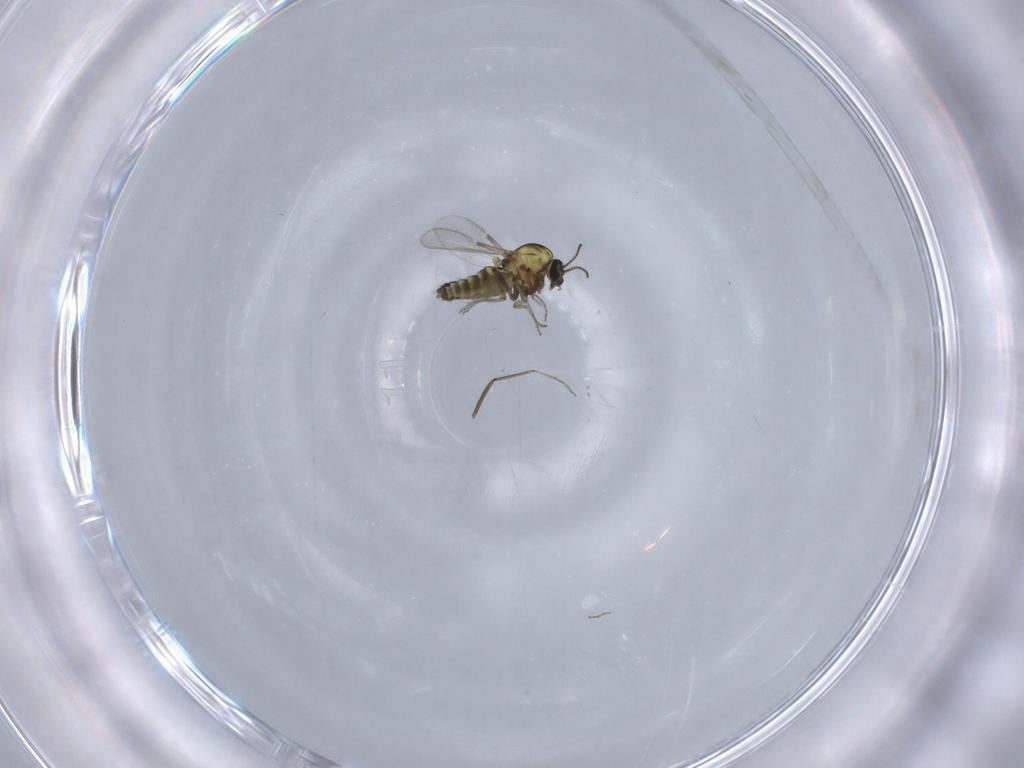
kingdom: Animalia
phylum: Arthropoda
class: Insecta
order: Diptera
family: Ceratopogonidae
